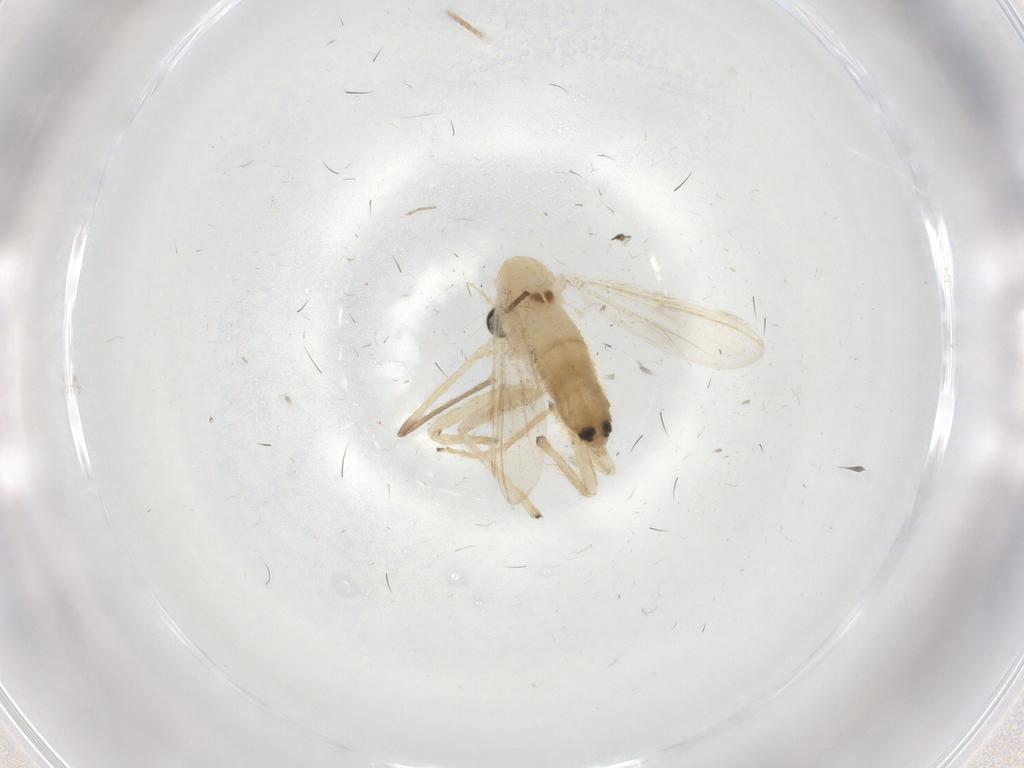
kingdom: Animalia
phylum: Arthropoda
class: Insecta
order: Diptera
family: Chironomidae
